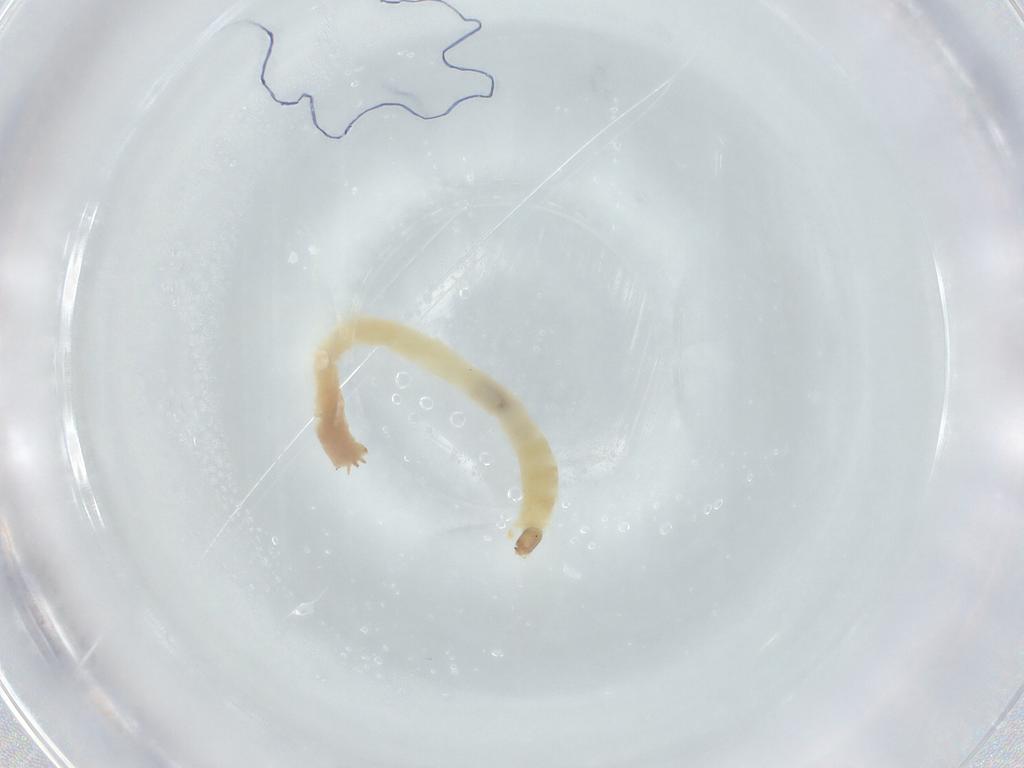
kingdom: Animalia
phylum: Arthropoda
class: Insecta
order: Diptera
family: Chironomidae
